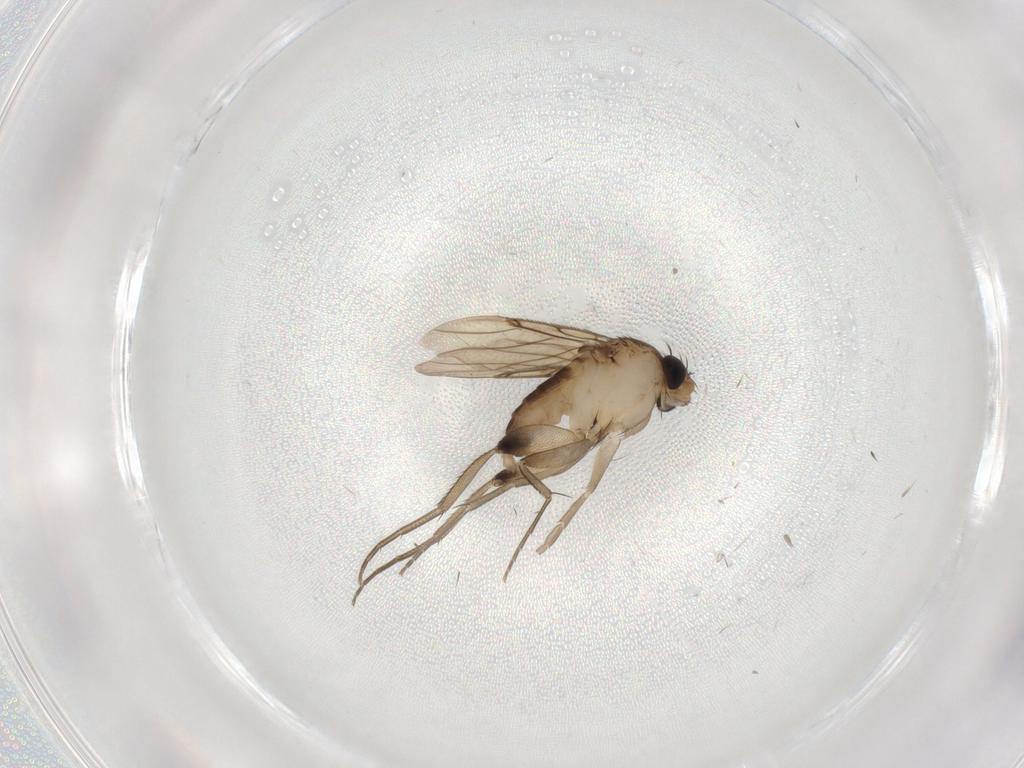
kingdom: Animalia
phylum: Arthropoda
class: Insecta
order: Diptera
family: Phoridae
